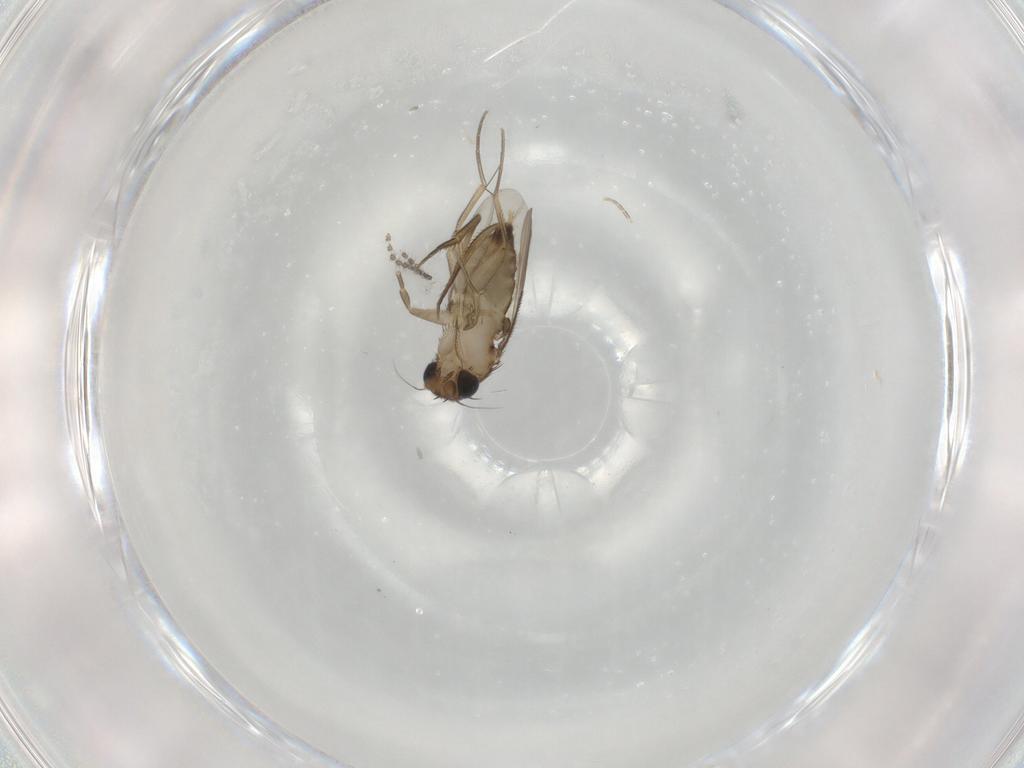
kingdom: Animalia
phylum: Arthropoda
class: Insecta
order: Diptera
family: Phoridae
